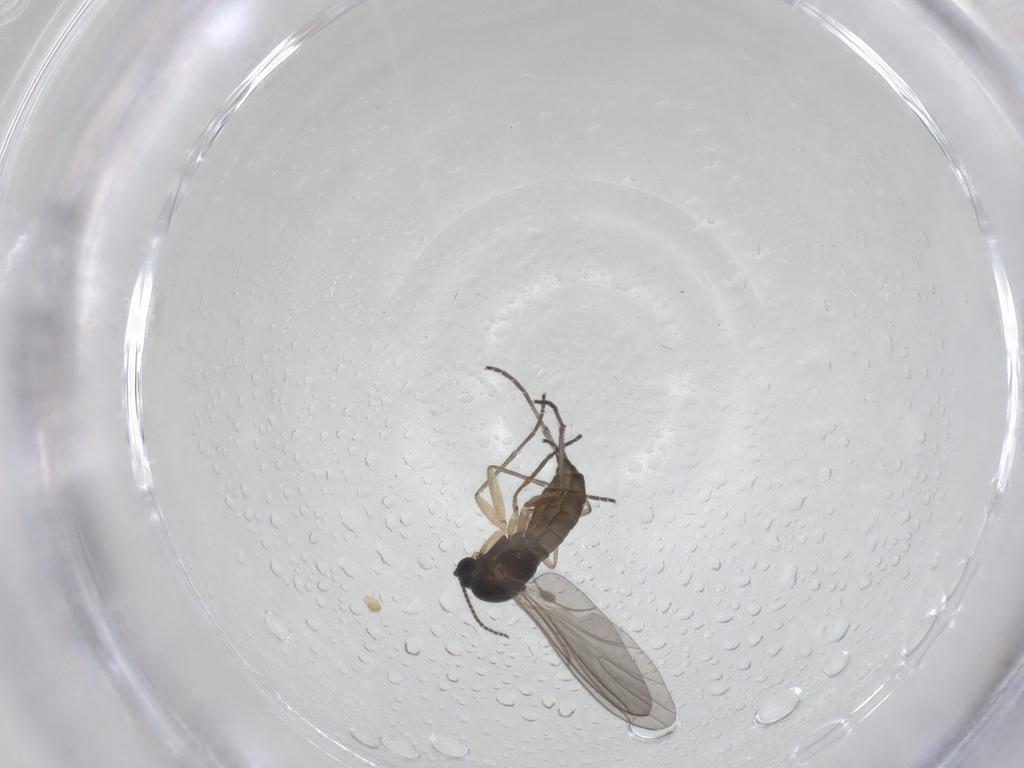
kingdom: Animalia
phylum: Arthropoda
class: Insecta
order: Diptera
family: Sciaridae
